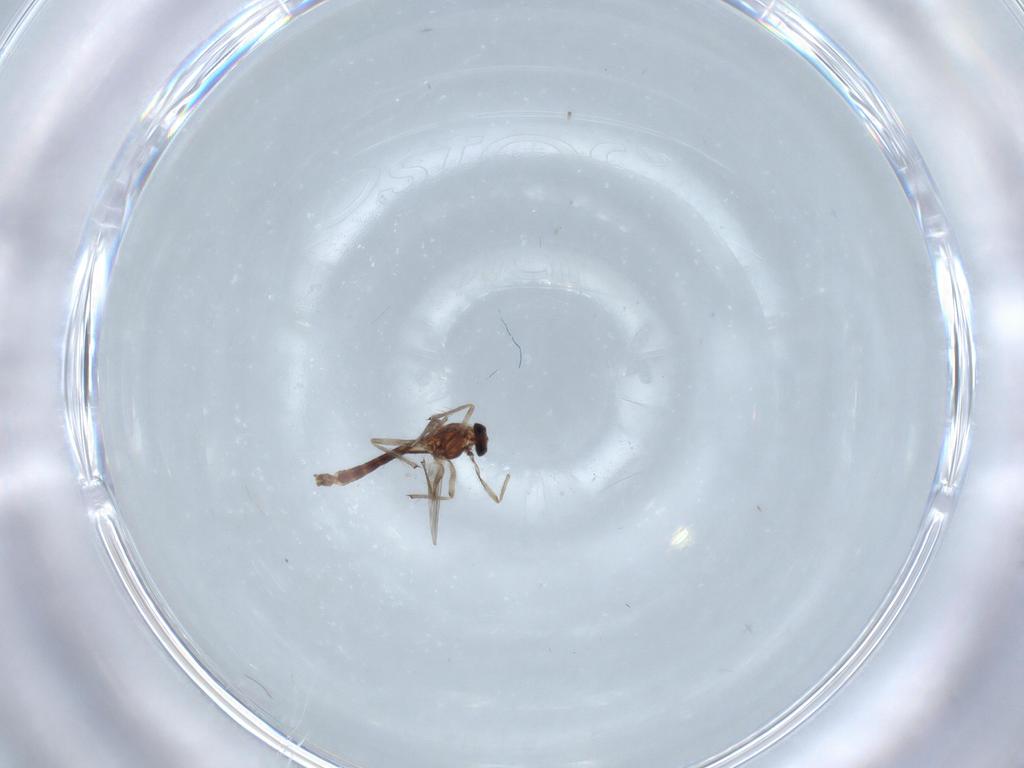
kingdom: Animalia
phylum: Arthropoda
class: Insecta
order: Diptera
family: Chironomidae
